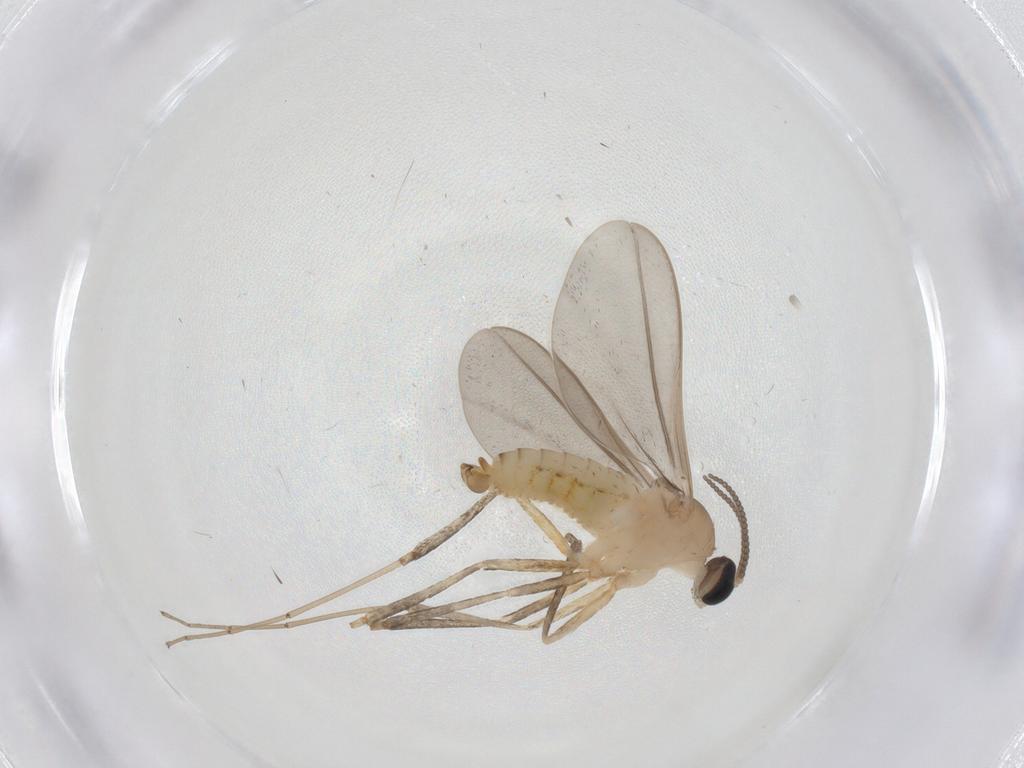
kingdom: Animalia
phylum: Arthropoda
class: Insecta
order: Diptera
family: Cecidomyiidae
